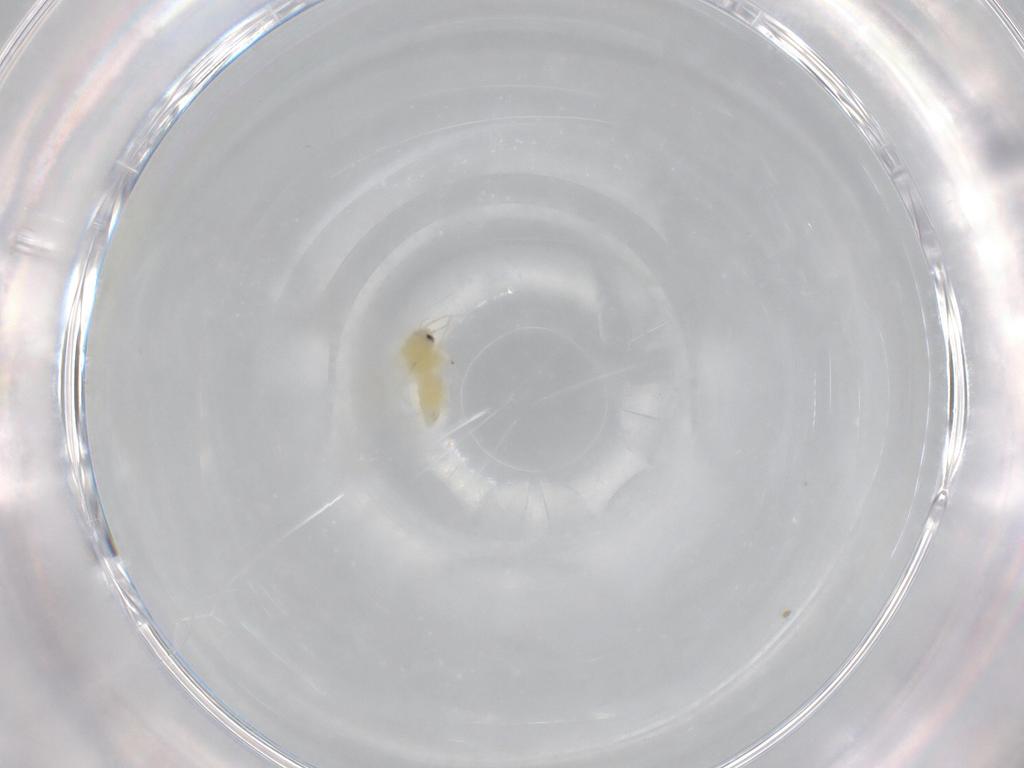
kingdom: Animalia
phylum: Arthropoda
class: Insecta
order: Hemiptera
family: Aleyrodidae
